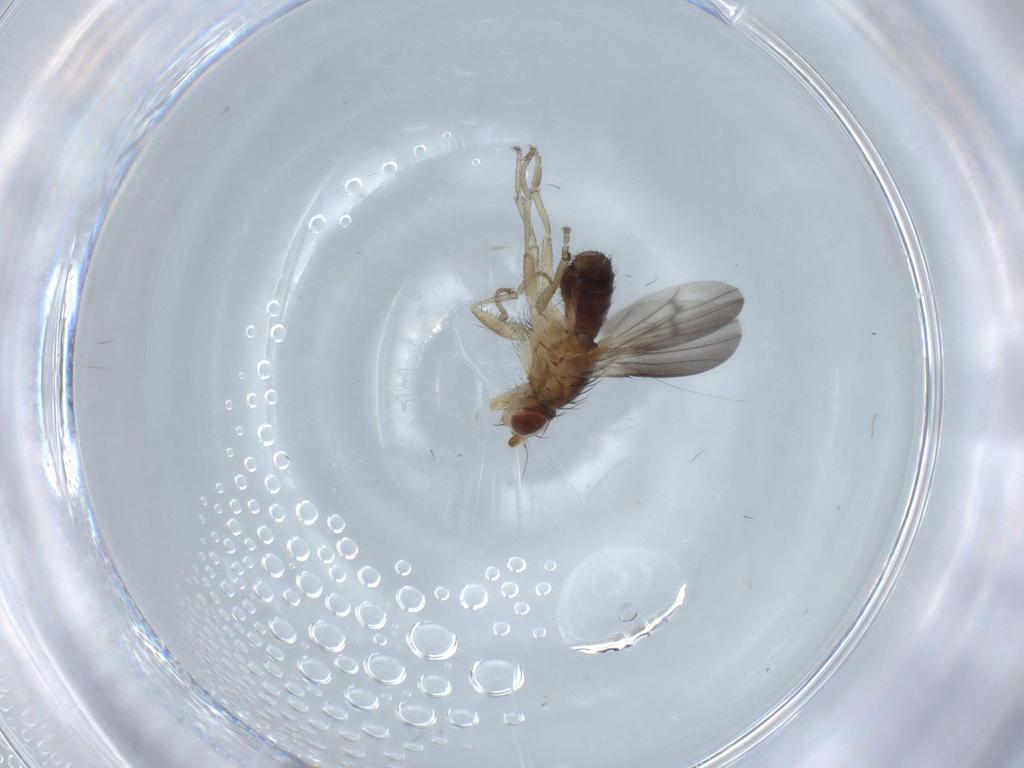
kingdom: Animalia
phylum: Arthropoda
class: Insecta
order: Diptera
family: Heleomyzidae
